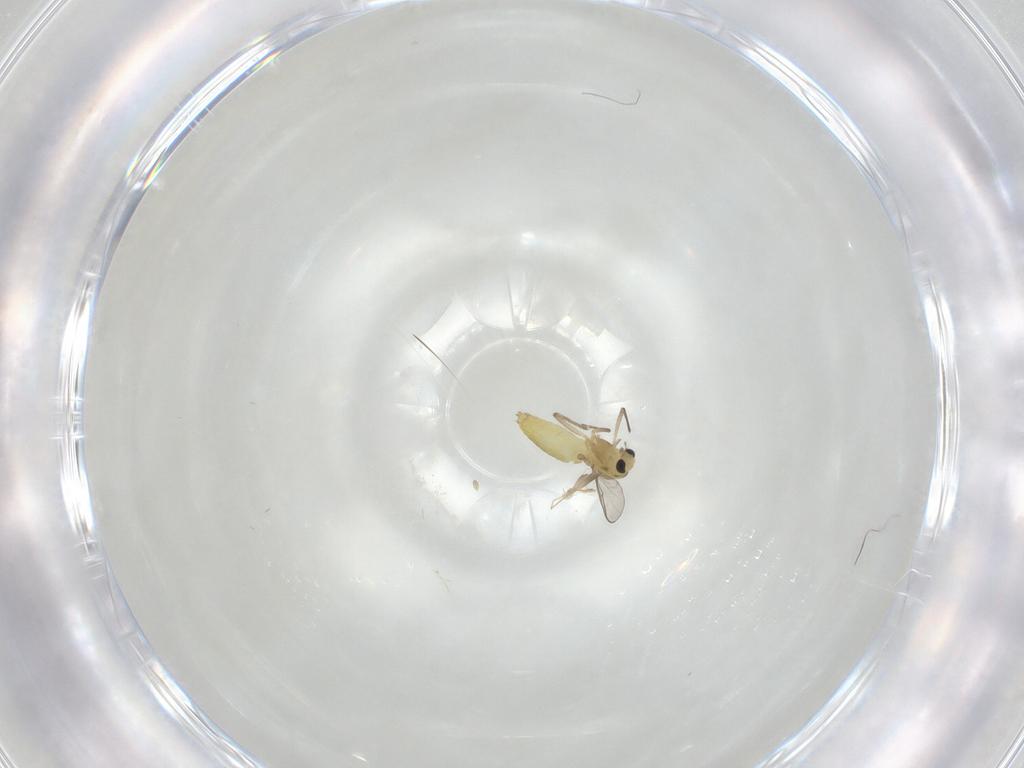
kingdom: Animalia
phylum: Arthropoda
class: Insecta
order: Diptera
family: Chironomidae
